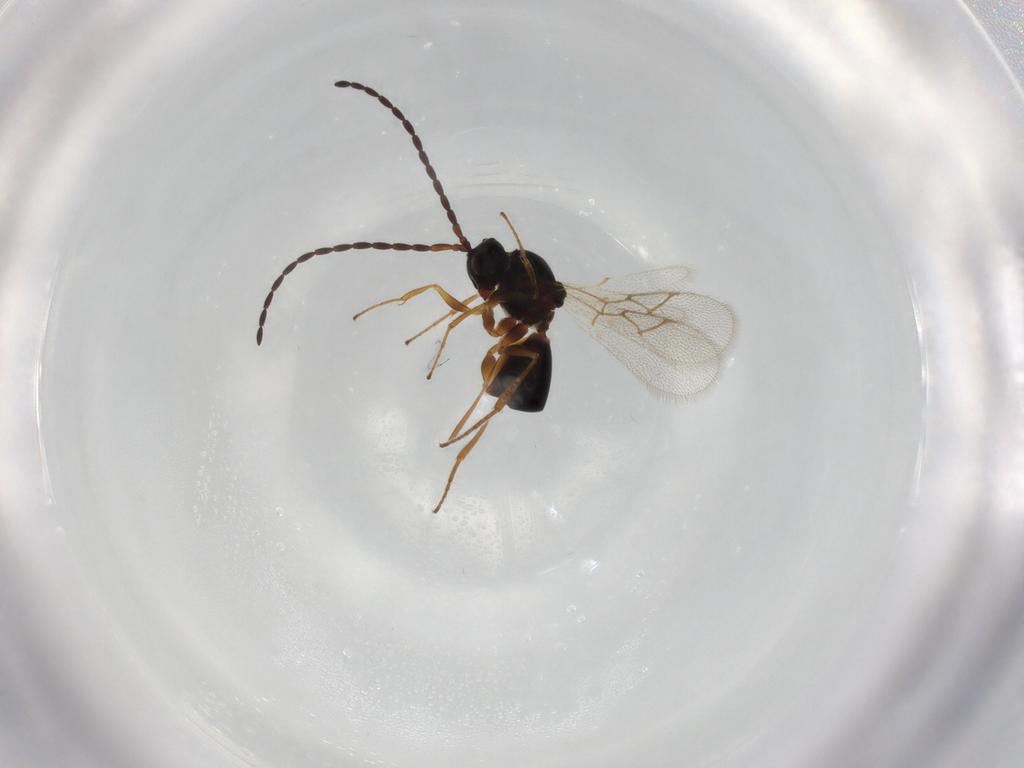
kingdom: Animalia
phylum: Arthropoda
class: Insecta
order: Hymenoptera
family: Figitidae
